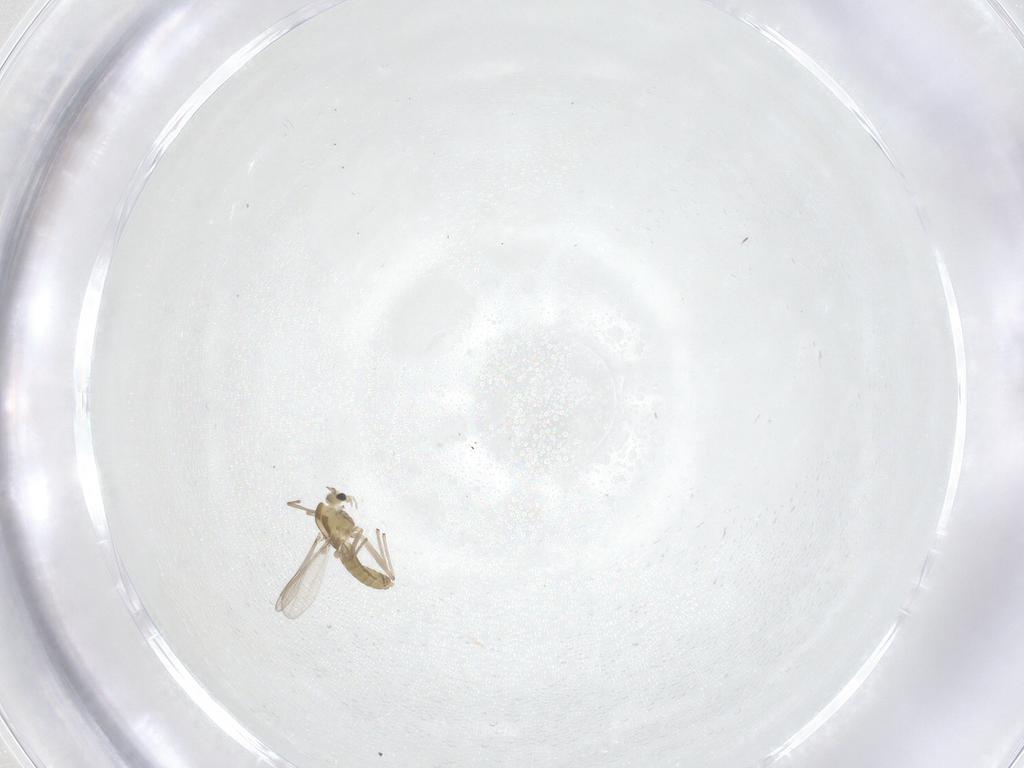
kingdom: Animalia
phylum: Arthropoda
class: Insecta
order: Diptera
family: Chironomidae
